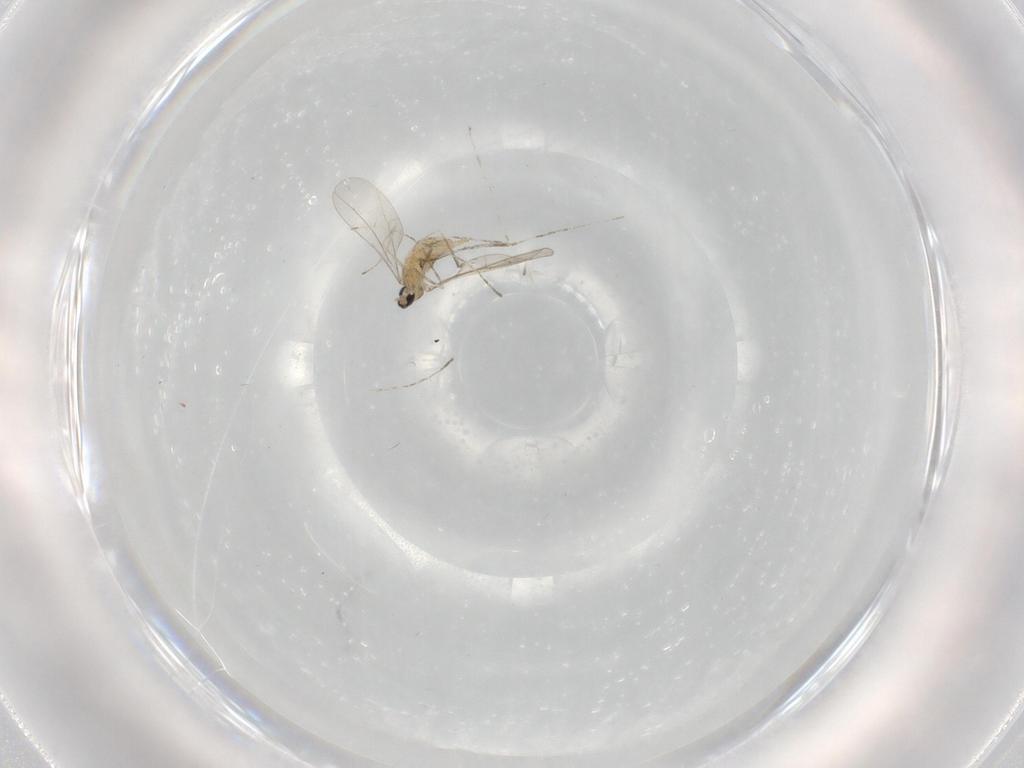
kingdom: Animalia
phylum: Arthropoda
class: Insecta
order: Diptera
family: Cecidomyiidae
